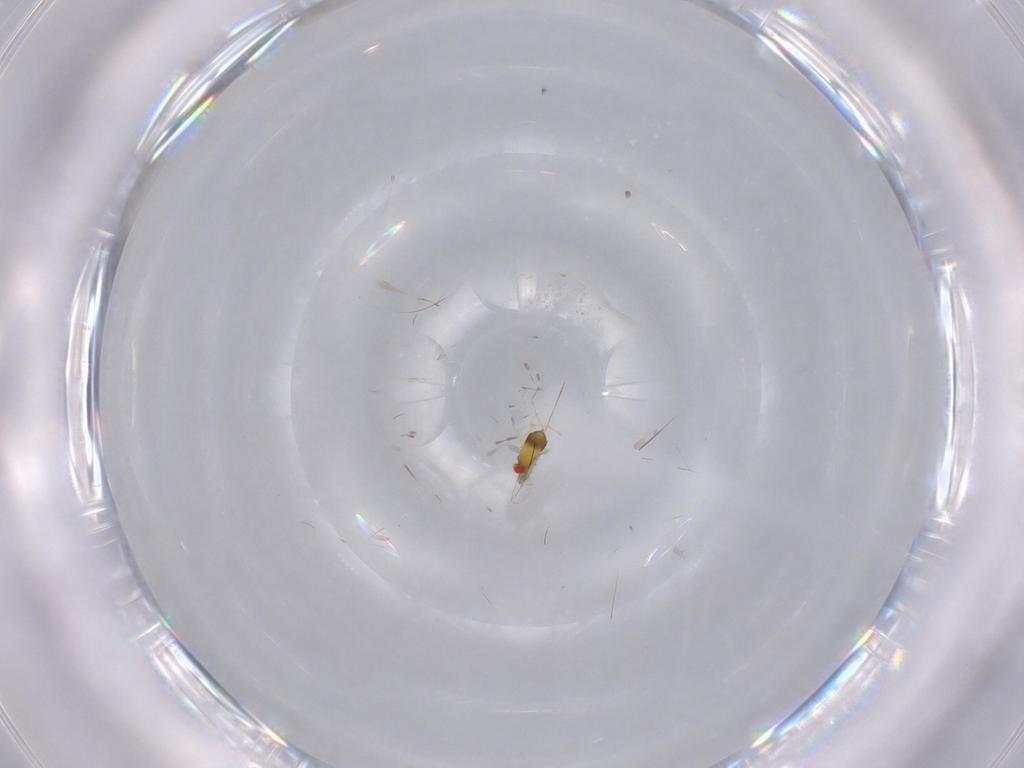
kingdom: Animalia
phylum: Arthropoda
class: Insecta
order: Hymenoptera
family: Trichogrammatidae
